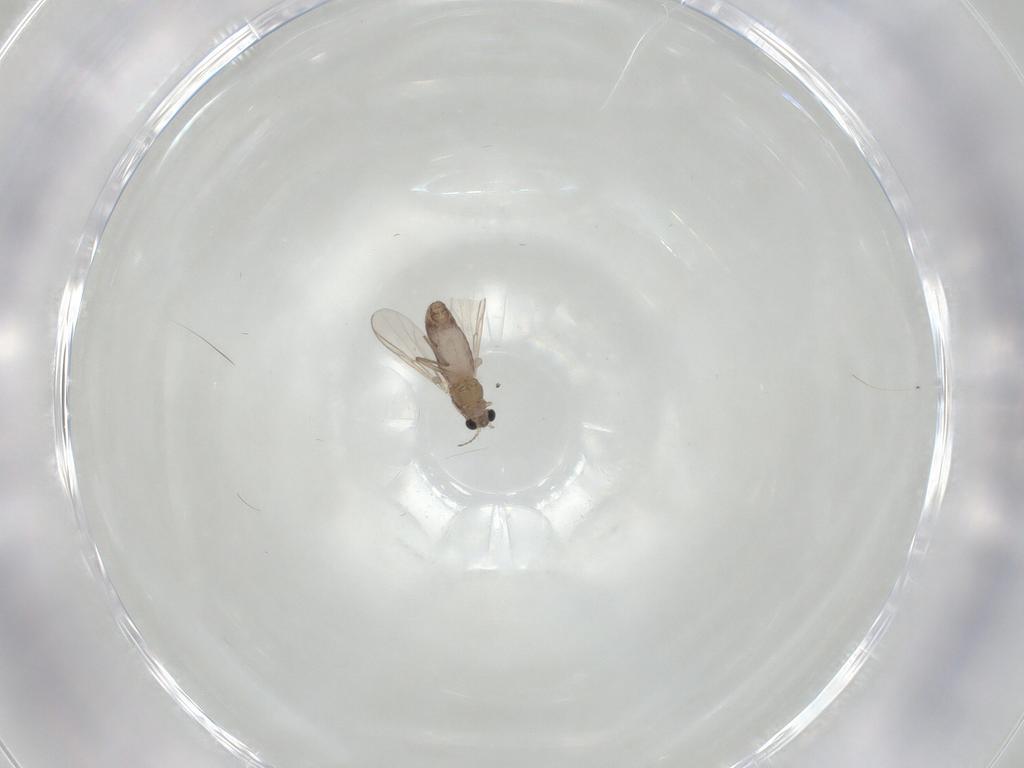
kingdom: Animalia
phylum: Arthropoda
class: Insecta
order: Diptera
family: Chironomidae
